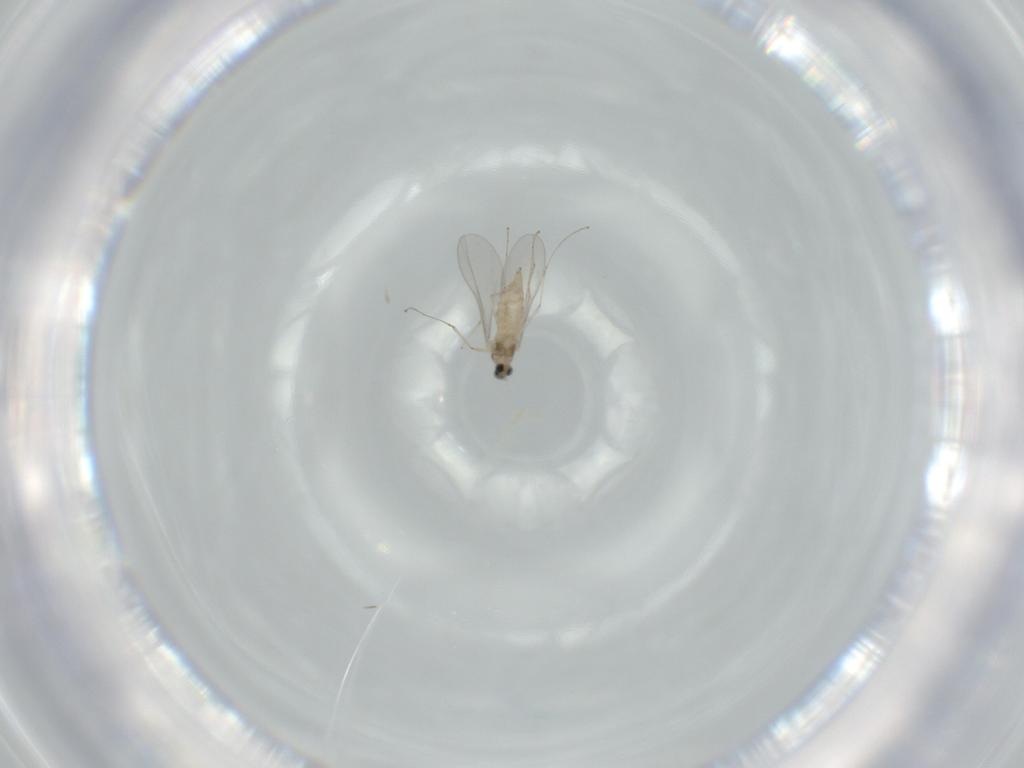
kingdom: Animalia
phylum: Arthropoda
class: Insecta
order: Diptera
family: Cecidomyiidae
